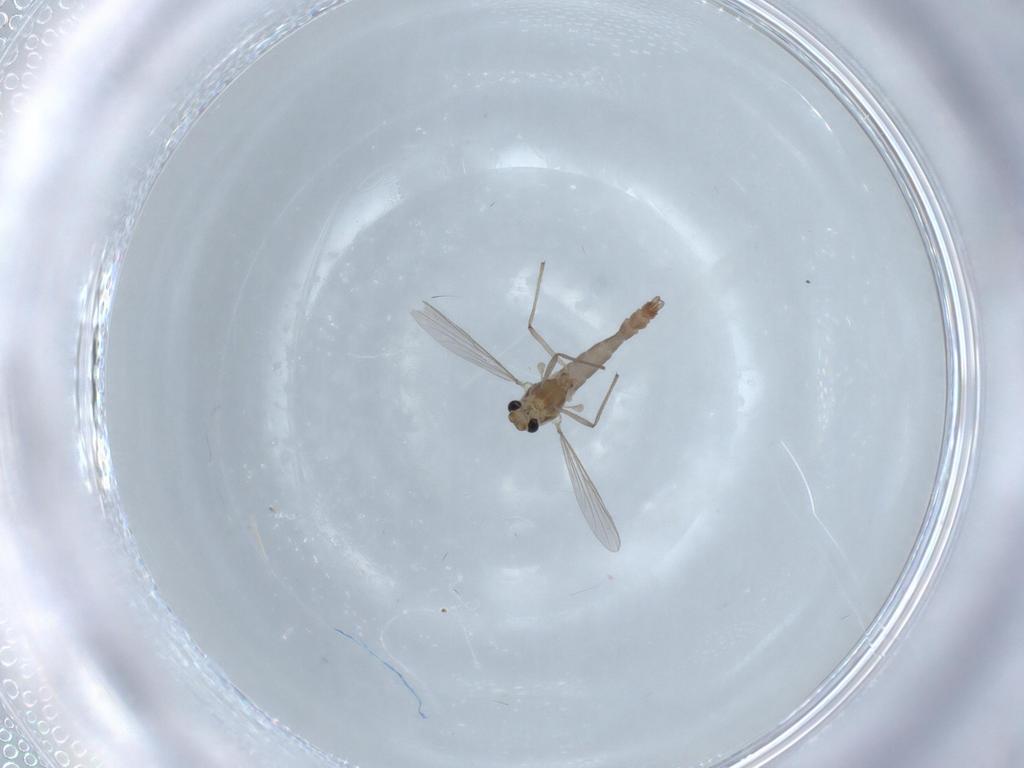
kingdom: Animalia
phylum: Arthropoda
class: Insecta
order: Diptera
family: Chironomidae
